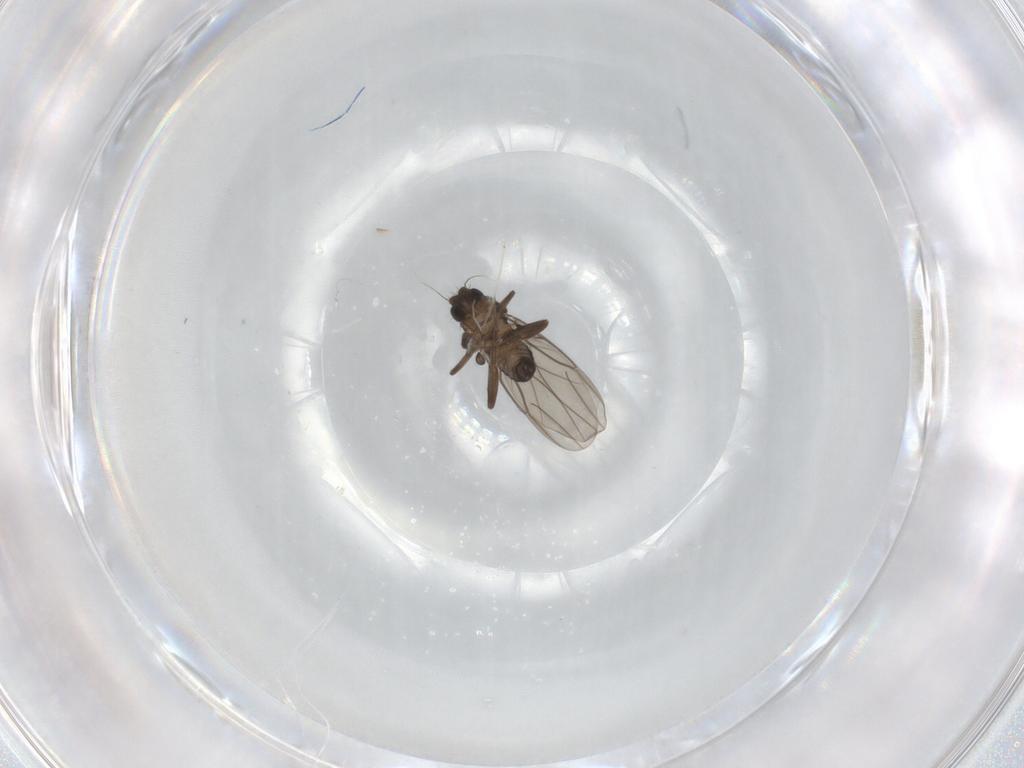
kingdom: Animalia
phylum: Arthropoda
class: Insecta
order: Diptera
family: Phoridae
